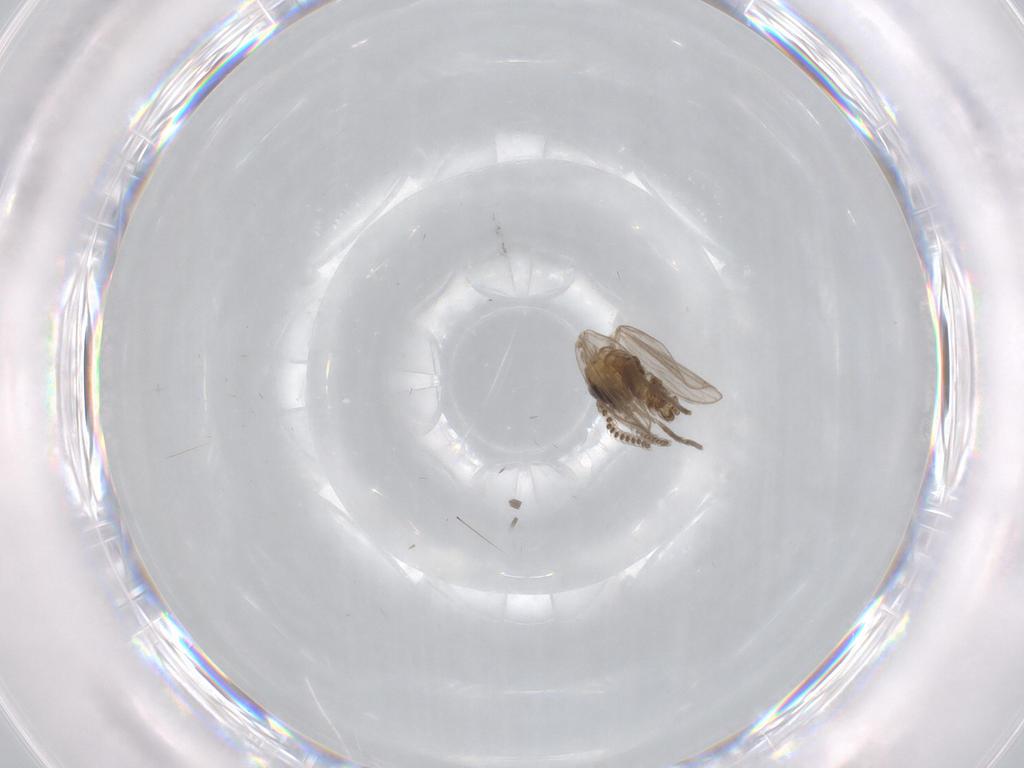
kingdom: Animalia
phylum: Arthropoda
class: Insecta
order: Diptera
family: Psychodidae
